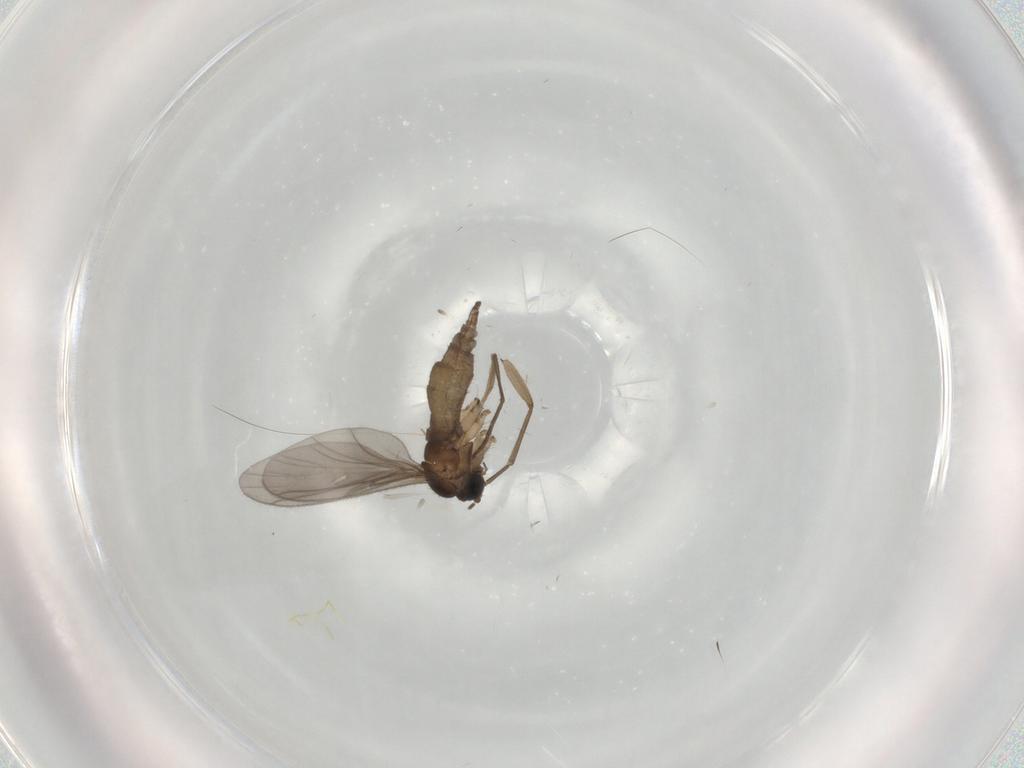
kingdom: Animalia
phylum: Arthropoda
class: Insecta
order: Diptera
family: Sciaridae
